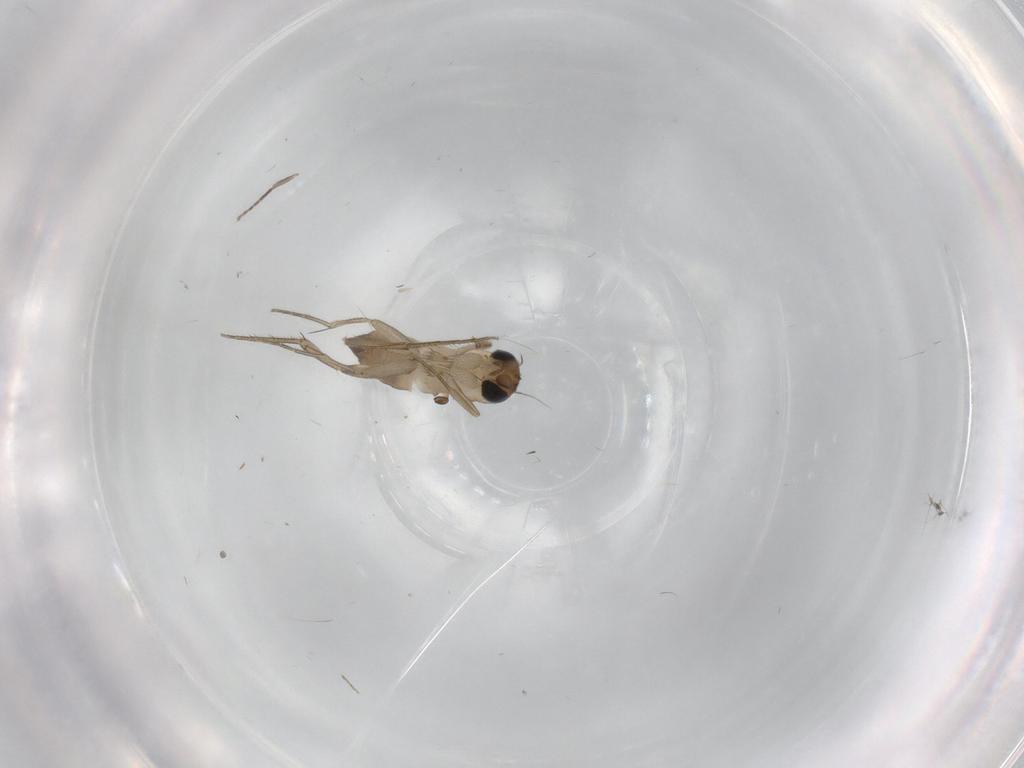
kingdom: Animalia
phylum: Arthropoda
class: Insecta
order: Diptera
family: Phoridae
